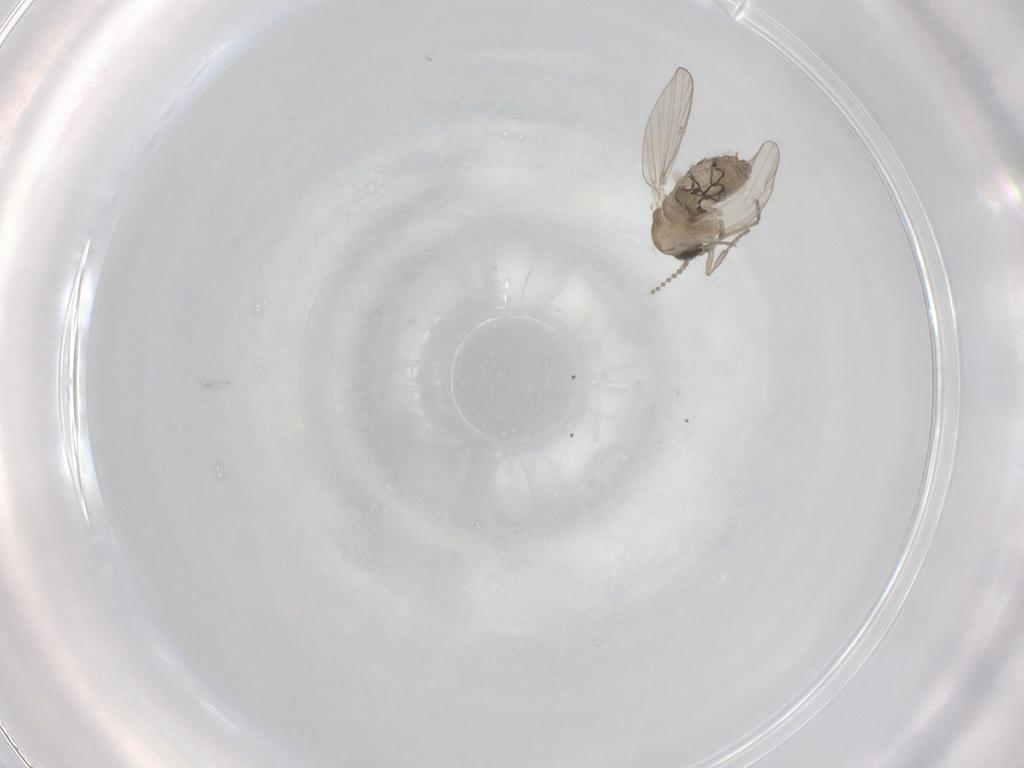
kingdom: Animalia
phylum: Arthropoda
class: Insecta
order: Diptera
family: Psychodidae
